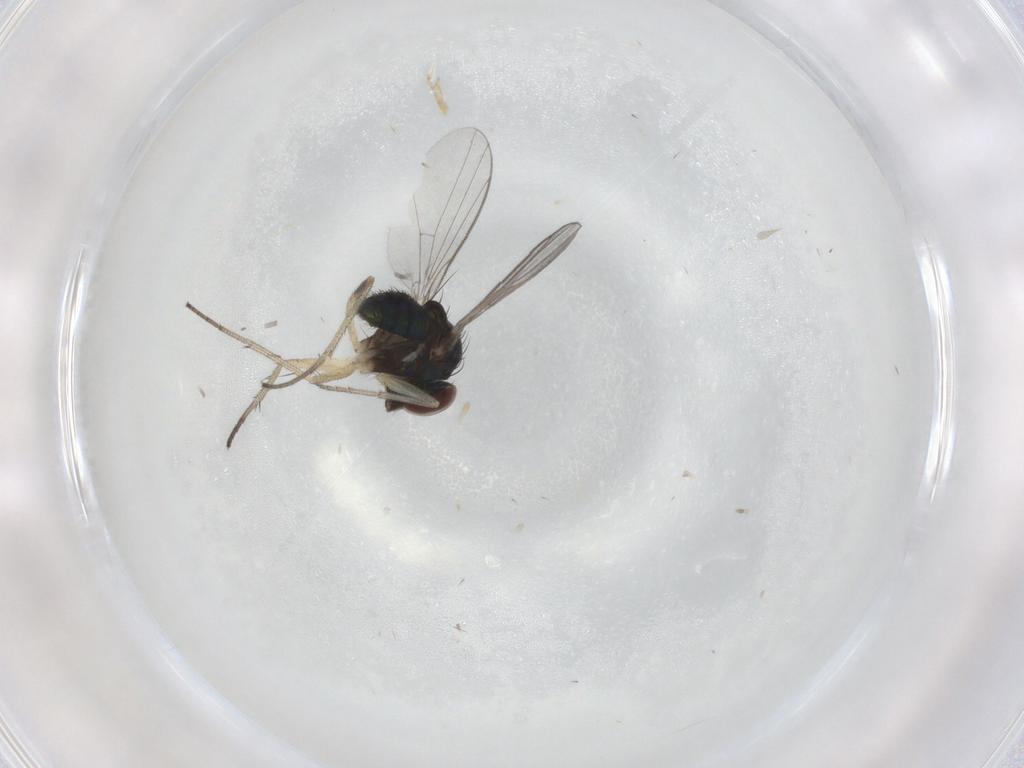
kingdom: Animalia
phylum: Arthropoda
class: Insecta
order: Diptera
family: Dolichopodidae
